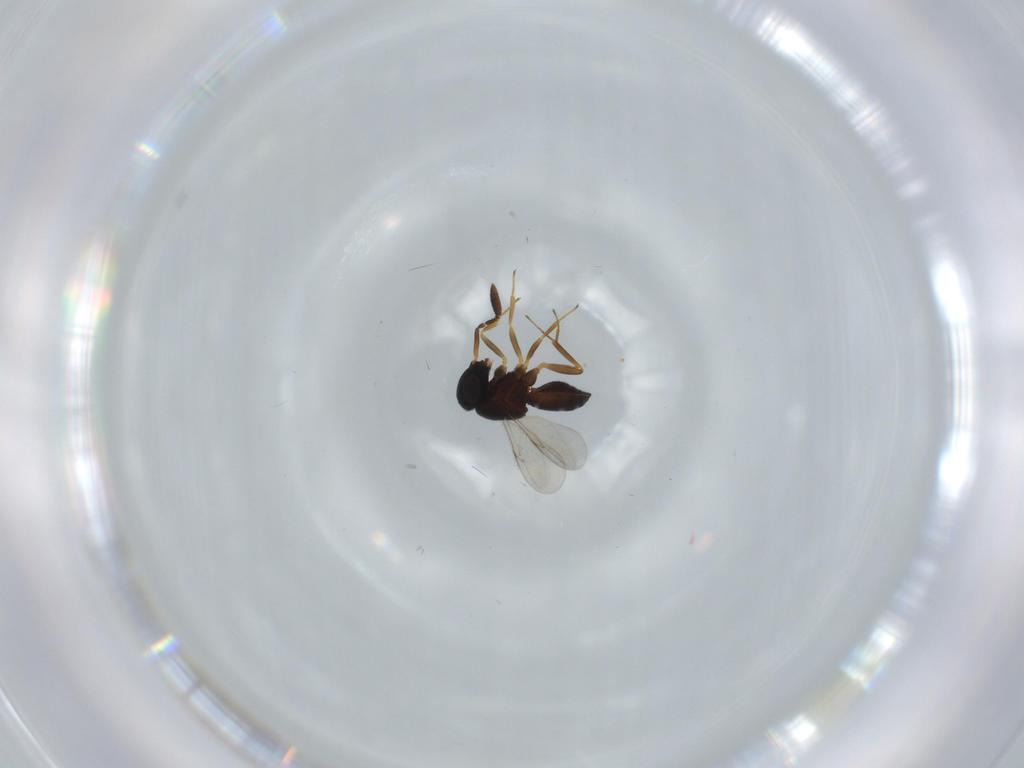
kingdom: Animalia
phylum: Arthropoda
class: Insecta
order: Hymenoptera
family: Scelionidae
